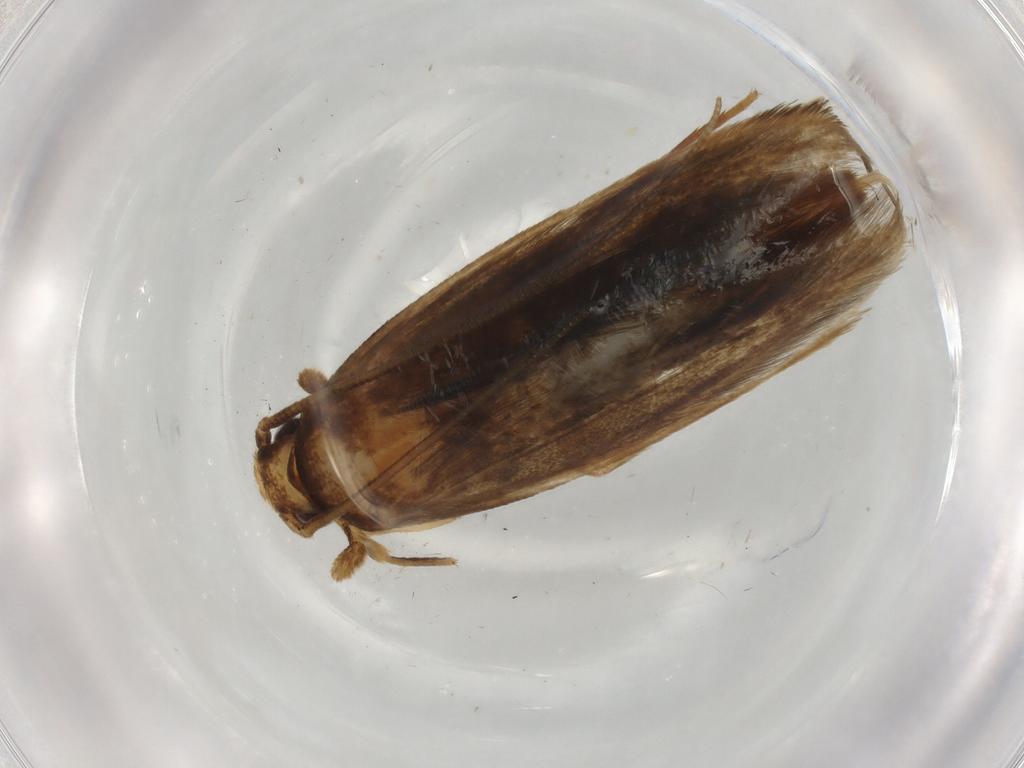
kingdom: Animalia
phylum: Arthropoda
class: Insecta
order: Lepidoptera
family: Tineidae
